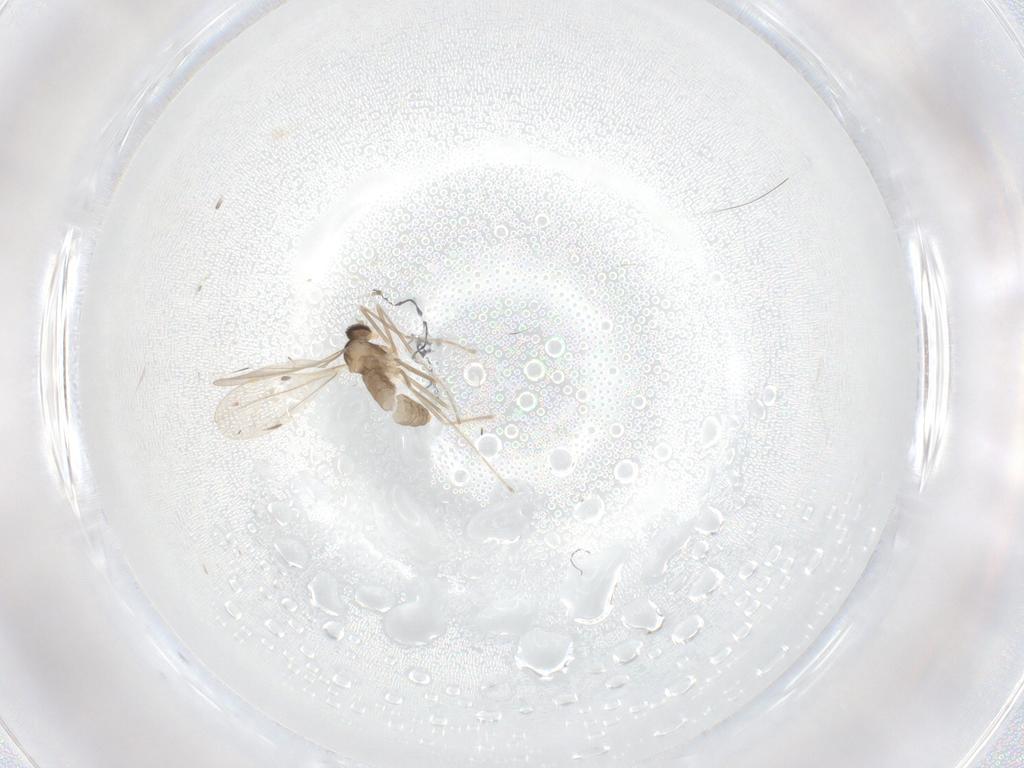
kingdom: Animalia
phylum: Arthropoda
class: Insecta
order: Diptera
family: Cecidomyiidae
